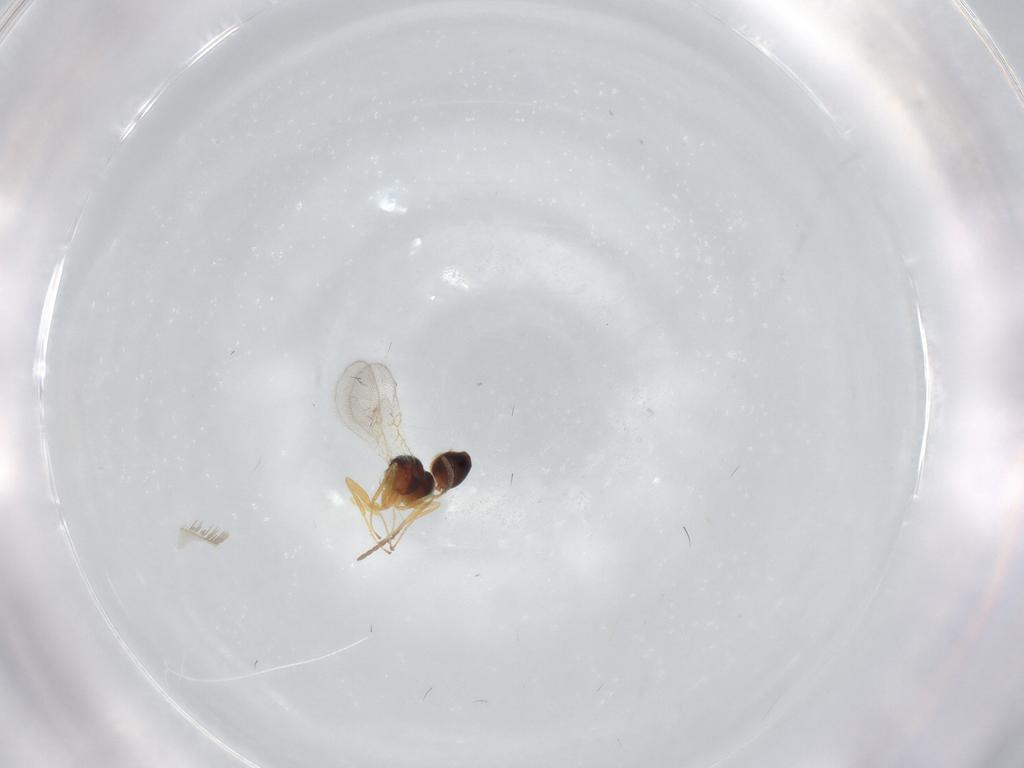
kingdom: Animalia
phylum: Arthropoda
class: Insecta
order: Hymenoptera
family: Figitidae
